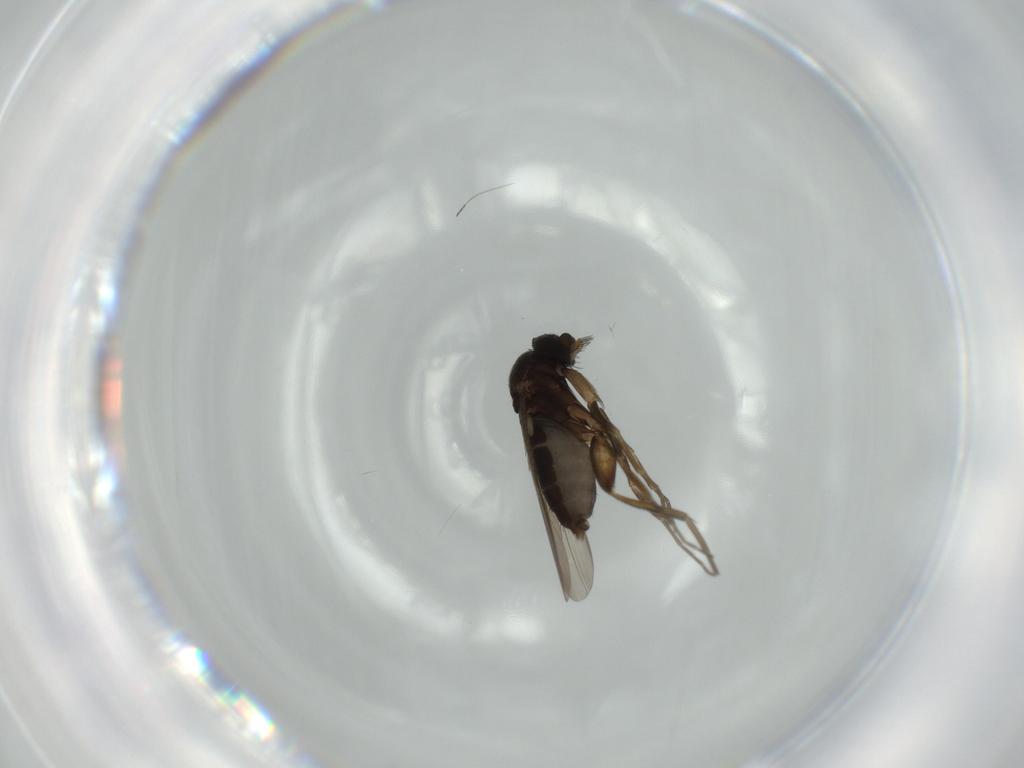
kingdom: Animalia
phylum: Arthropoda
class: Insecta
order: Diptera
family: Phoridae
